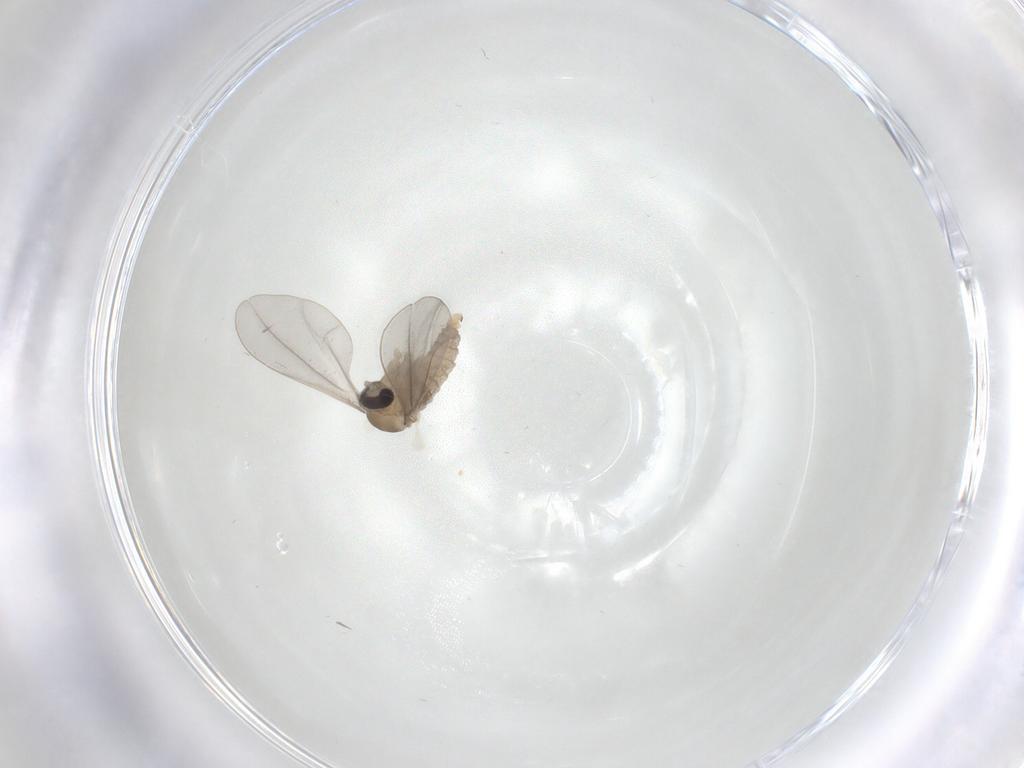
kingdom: Animalia
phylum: Arthropoda
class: Insecta
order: Diptera
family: Cecidomyiidae
